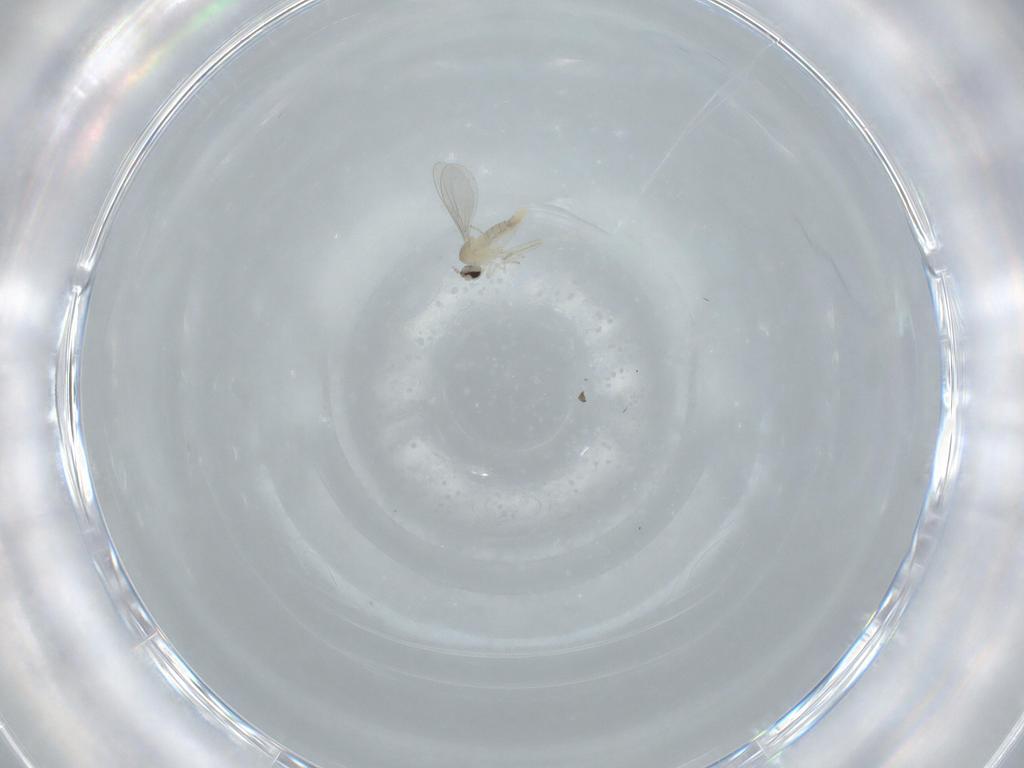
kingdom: Animalia
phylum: Arthropoda
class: Insecta
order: Diptera
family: Cecidomyiidae
